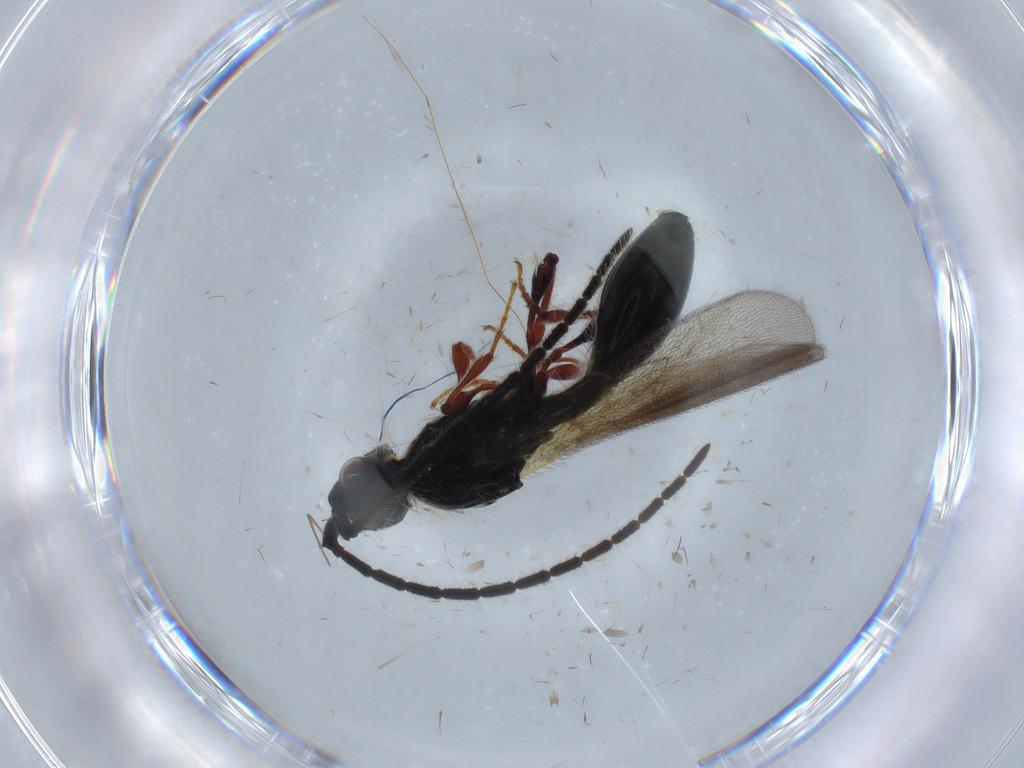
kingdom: Animalia
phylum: Arthropoda
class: Insecta
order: Hymenoptera
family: Diapriidae
